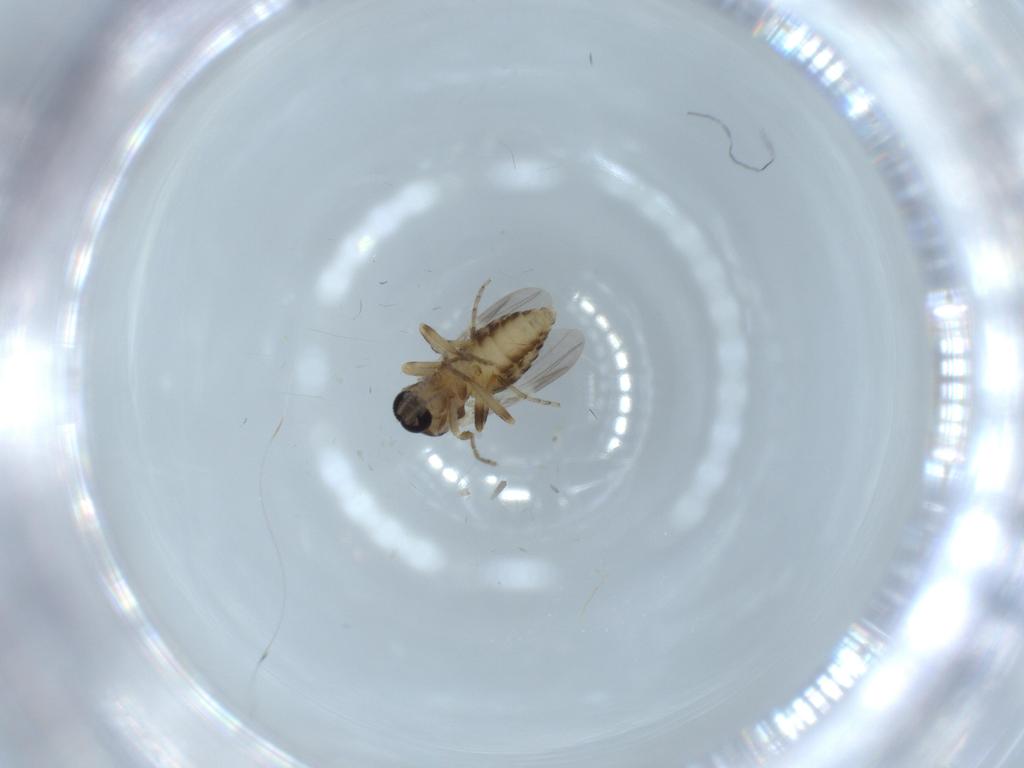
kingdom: Animalia
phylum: Arthropoda
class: Insecta
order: Diptera
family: Ceratopogonidae
